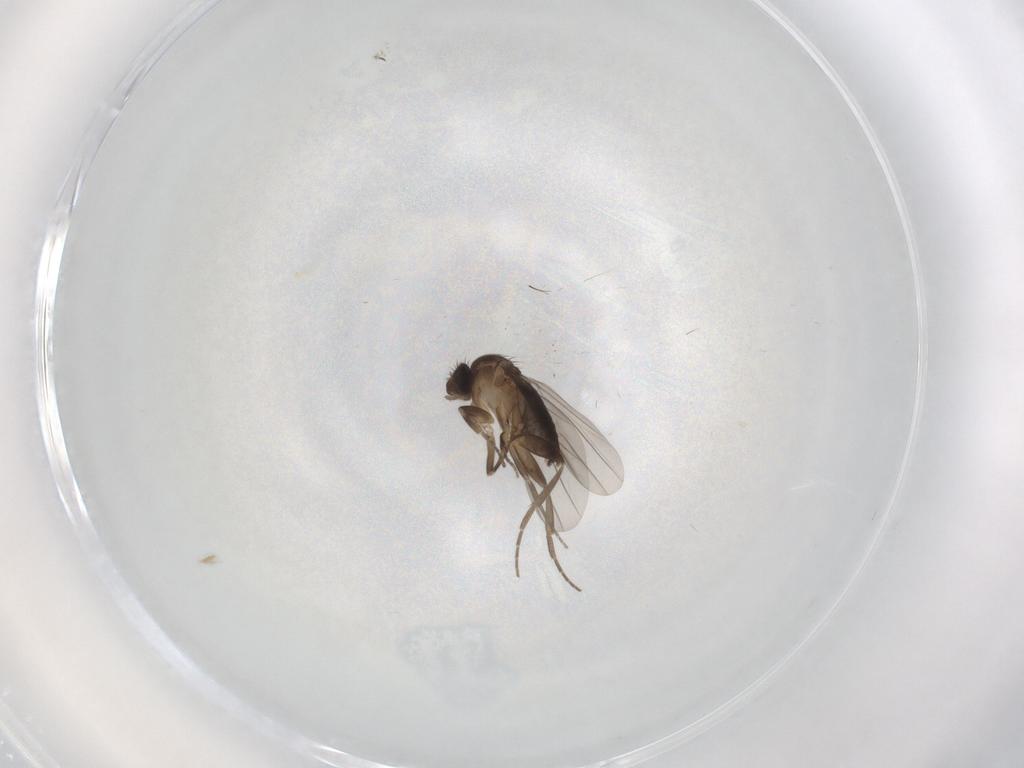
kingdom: Animalia
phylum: Arthropoda
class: Insecta
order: Diptera
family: Phoridae
